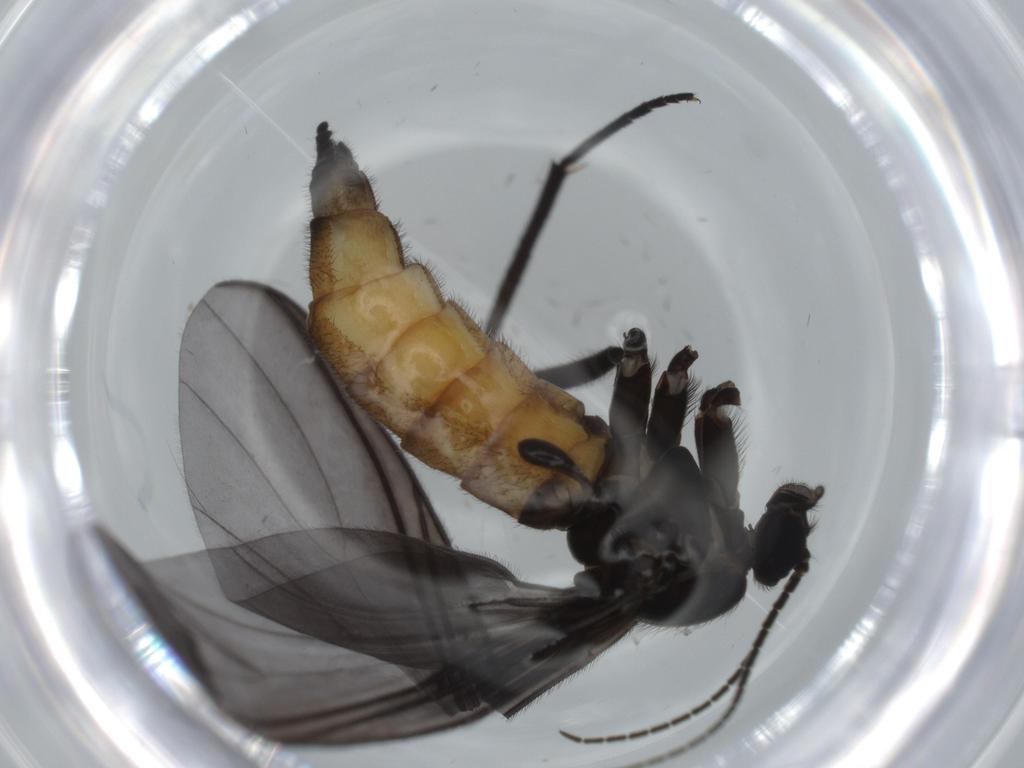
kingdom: Animalia
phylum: Arthropoda
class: Insecta
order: Diptera
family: Sciaridae
